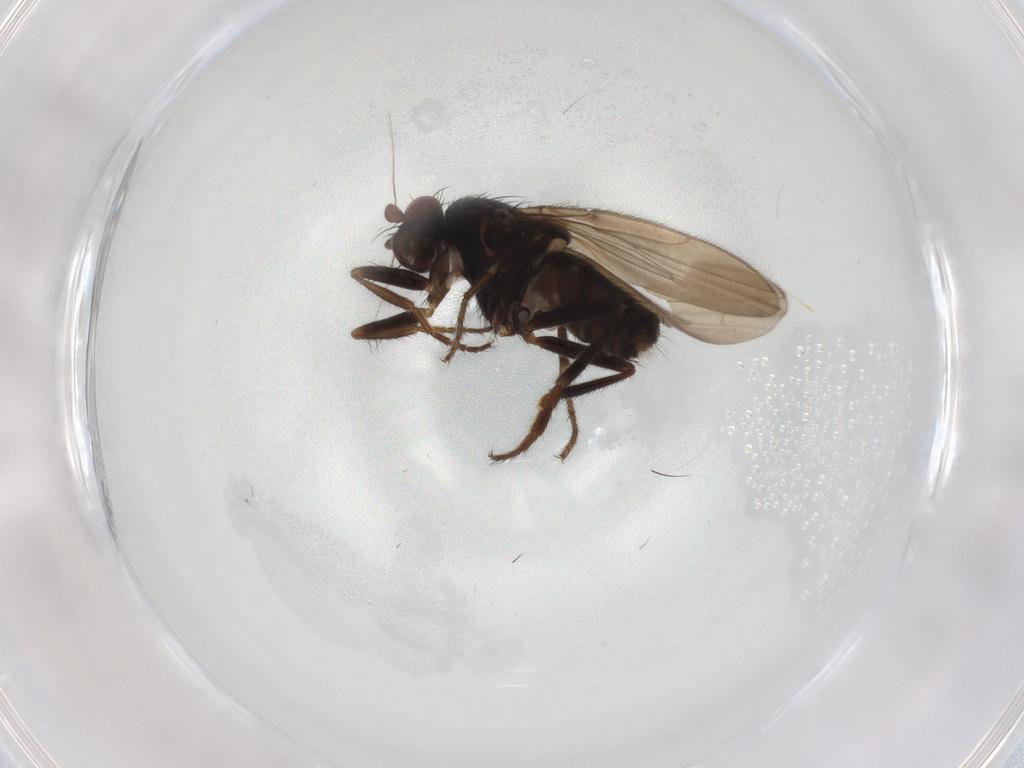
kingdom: Animalia
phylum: Arthropoda
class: Insecta
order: Diptera
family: Sphaeroceridae
